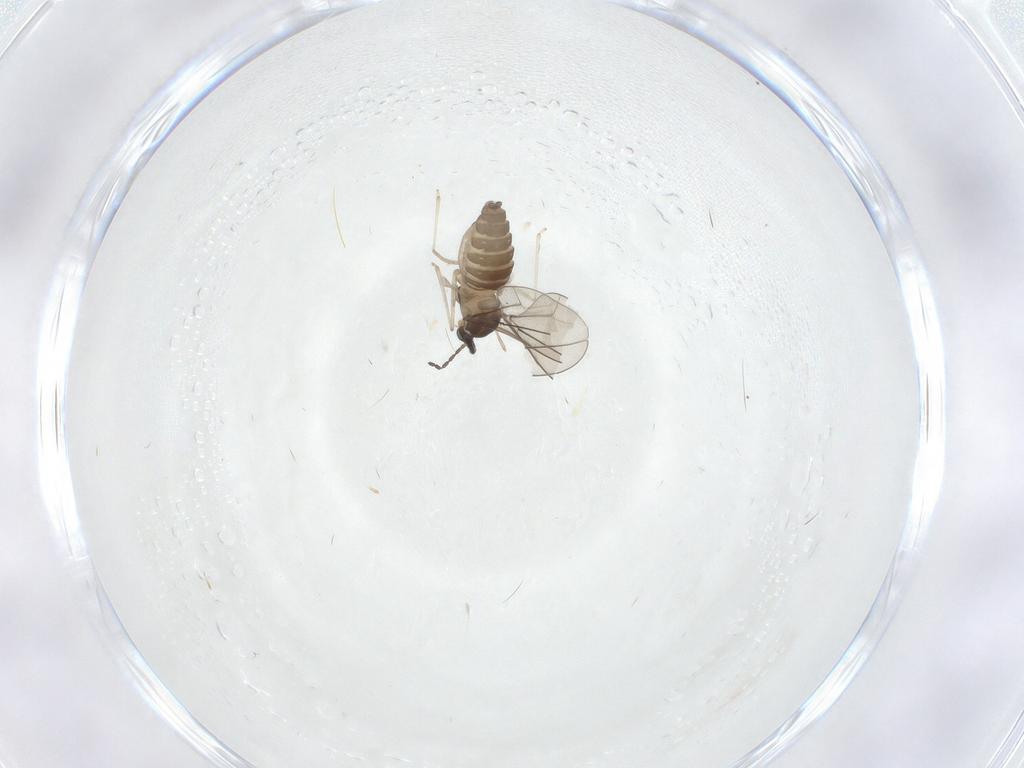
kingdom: Animalia
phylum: Arthropoda
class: Insecta
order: Diptera
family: Cecidomyiidae
